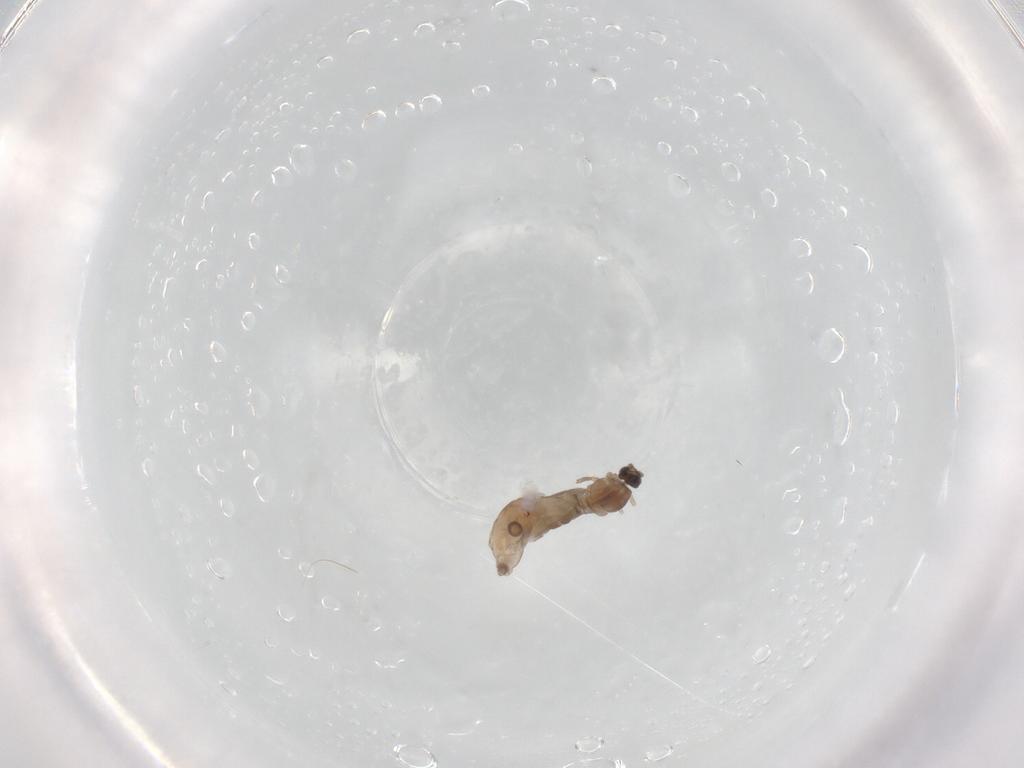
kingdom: Animalia
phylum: Arthropoda
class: Insecta
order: Diptera
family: Cecidomyiidae
